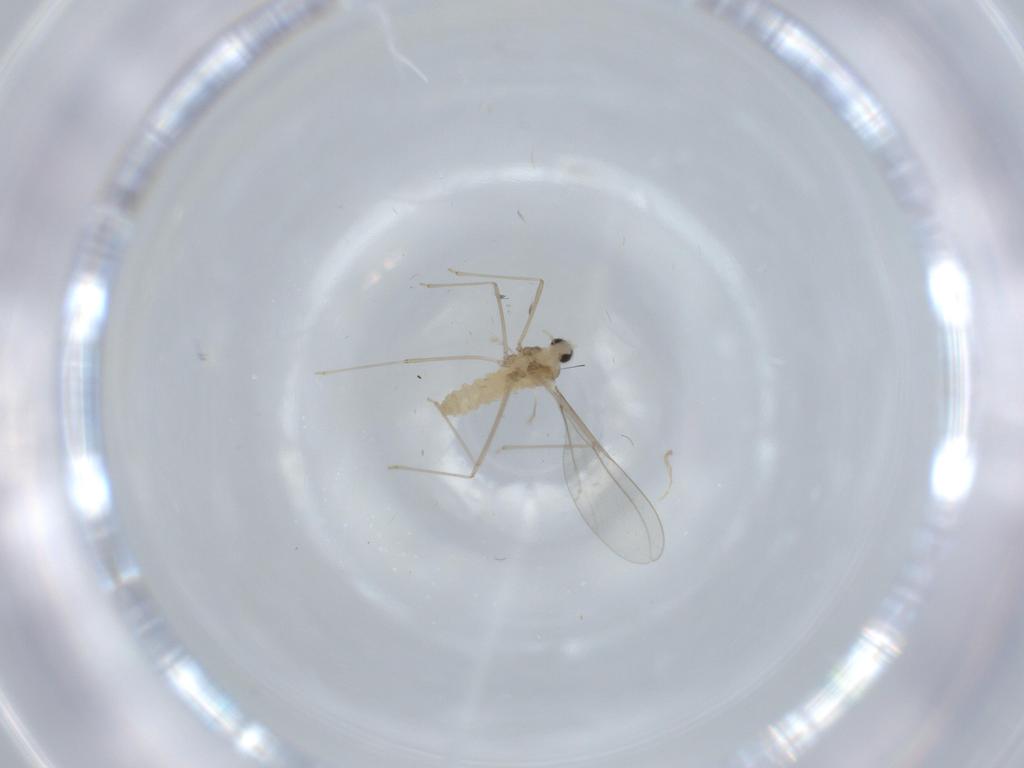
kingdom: Animalia
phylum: Arthropoda
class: Insecta
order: Diptera
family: Cecidomyiidae
